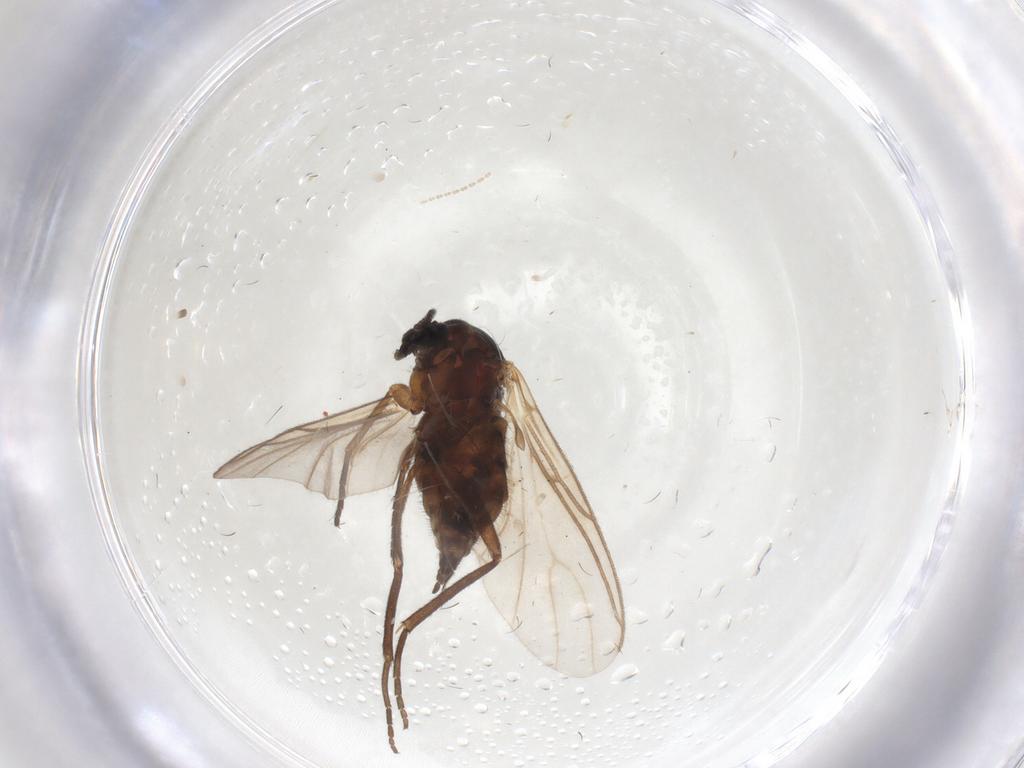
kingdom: Animalia
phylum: Arthropoda
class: Insecta
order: Diptera
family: Sciaridae
